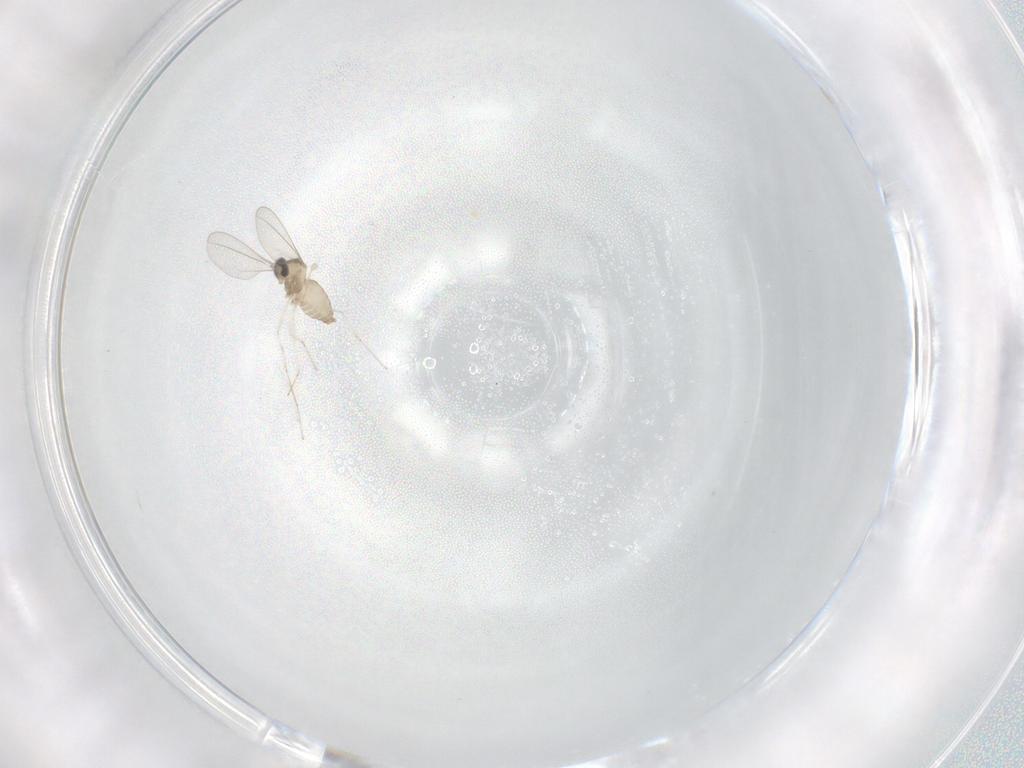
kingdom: Animalia
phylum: Arthropoda
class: Insecta
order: Diptera
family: Cecidomyiidae
